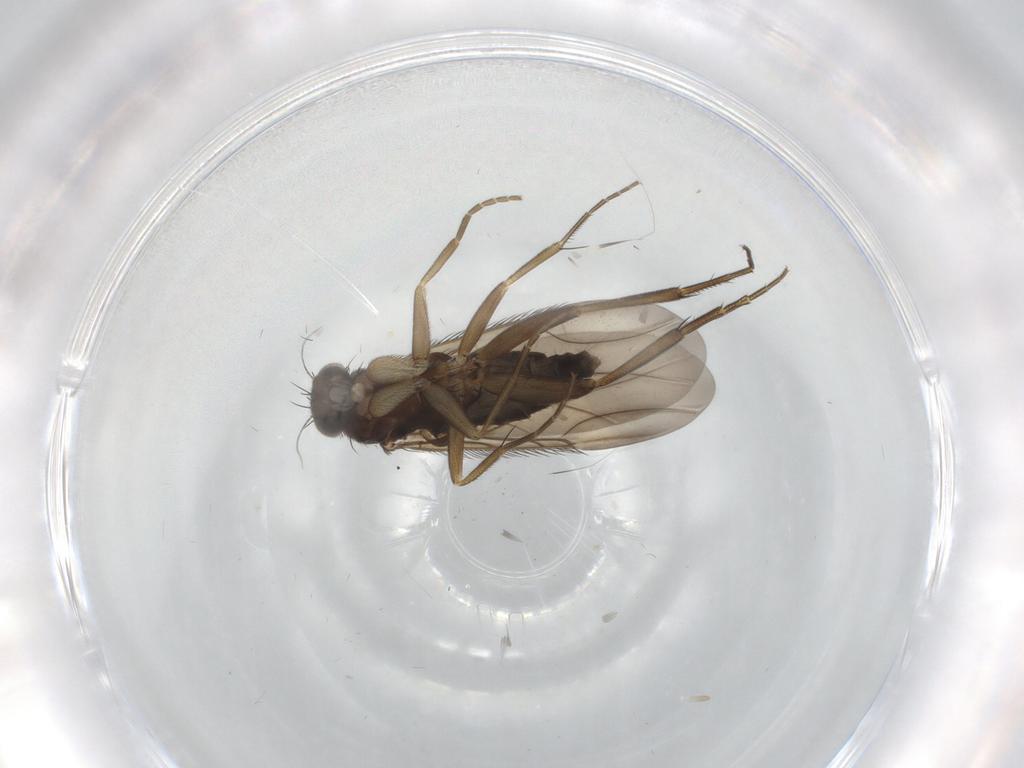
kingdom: Animalia
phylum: Arthropoda
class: Insecta
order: Diptera
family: Phoridae
